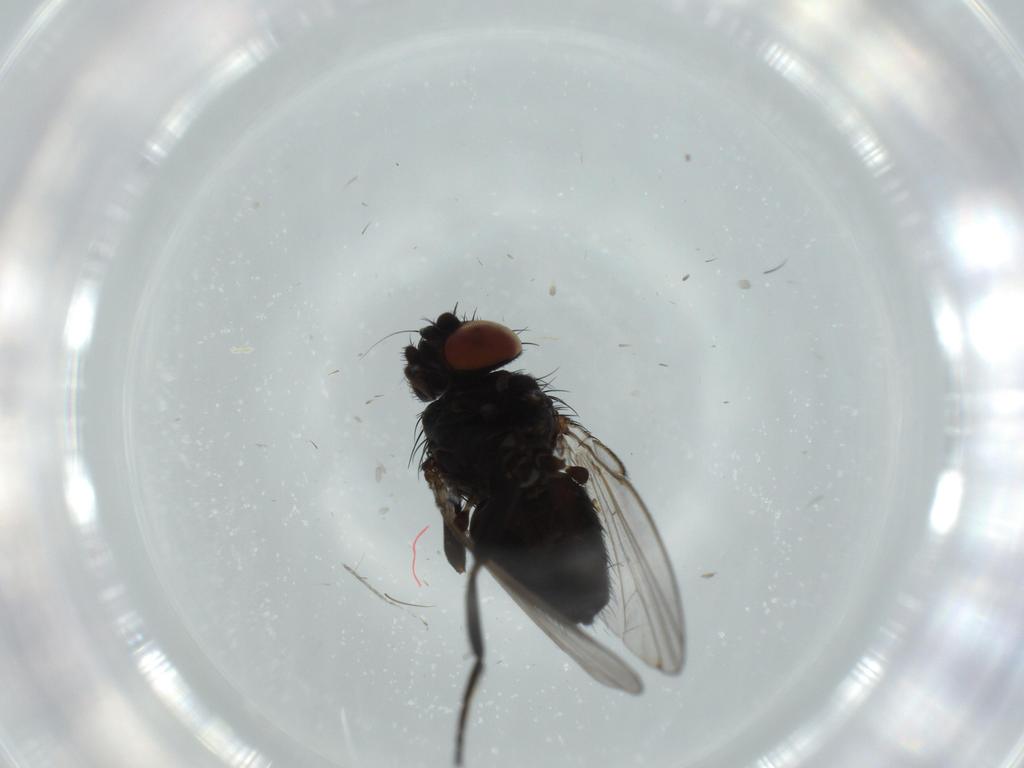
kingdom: Animalia
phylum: Arthropoda
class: Insecta
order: Diptera
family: Milichiidae
